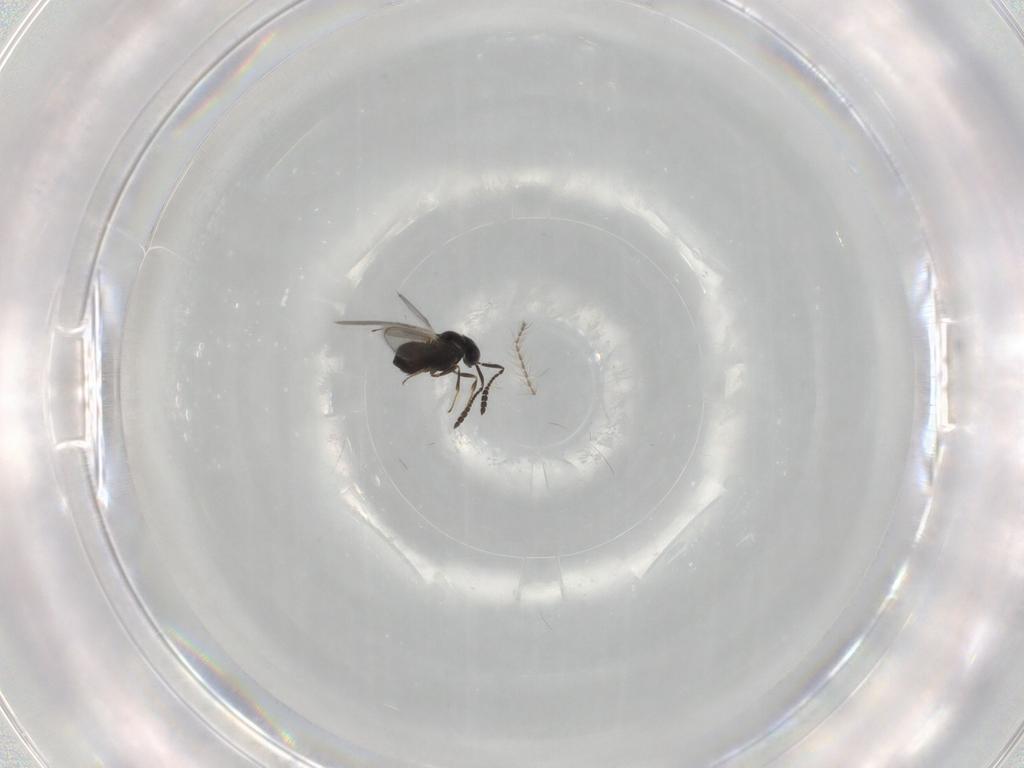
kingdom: Animalia
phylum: Arthropoda
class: Insecta
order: Hymenoptera
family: Scelionidae
